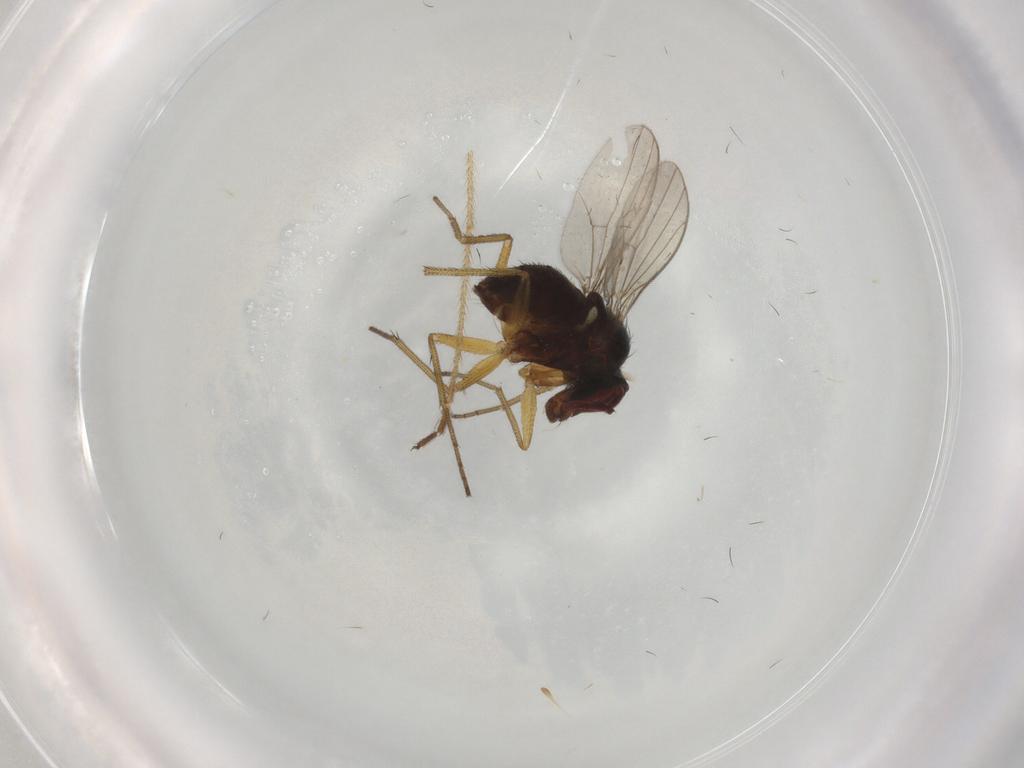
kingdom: Animalia
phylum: Arthropoda
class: Insecta
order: Diptera
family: Dolichopodidae
